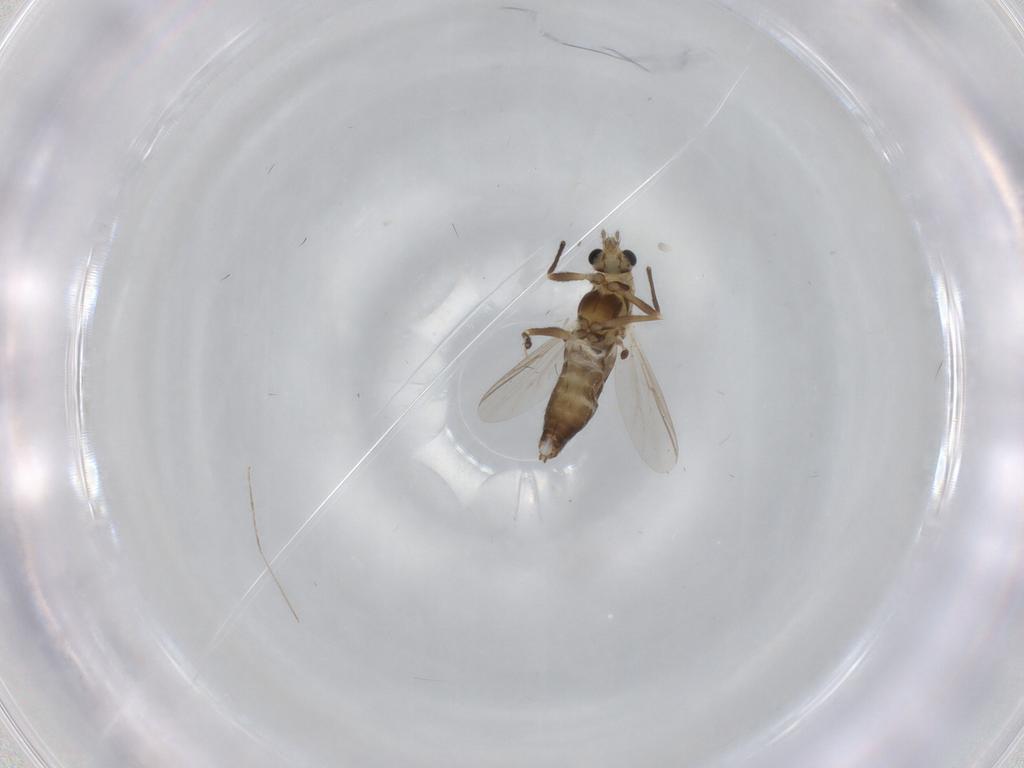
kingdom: Animalia
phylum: Arthropoda
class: Insecta
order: Diptera
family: Chironomidae
